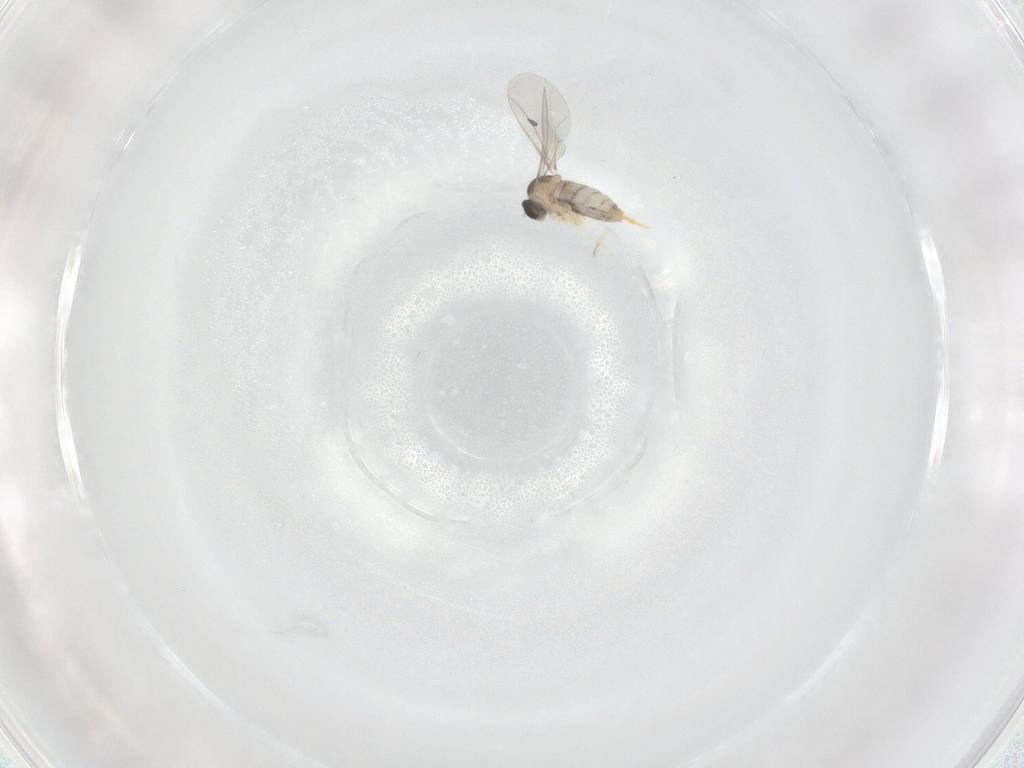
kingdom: Animalia
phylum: Arthropoda
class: Insecta
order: Diptera
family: Cecidomyiidae
